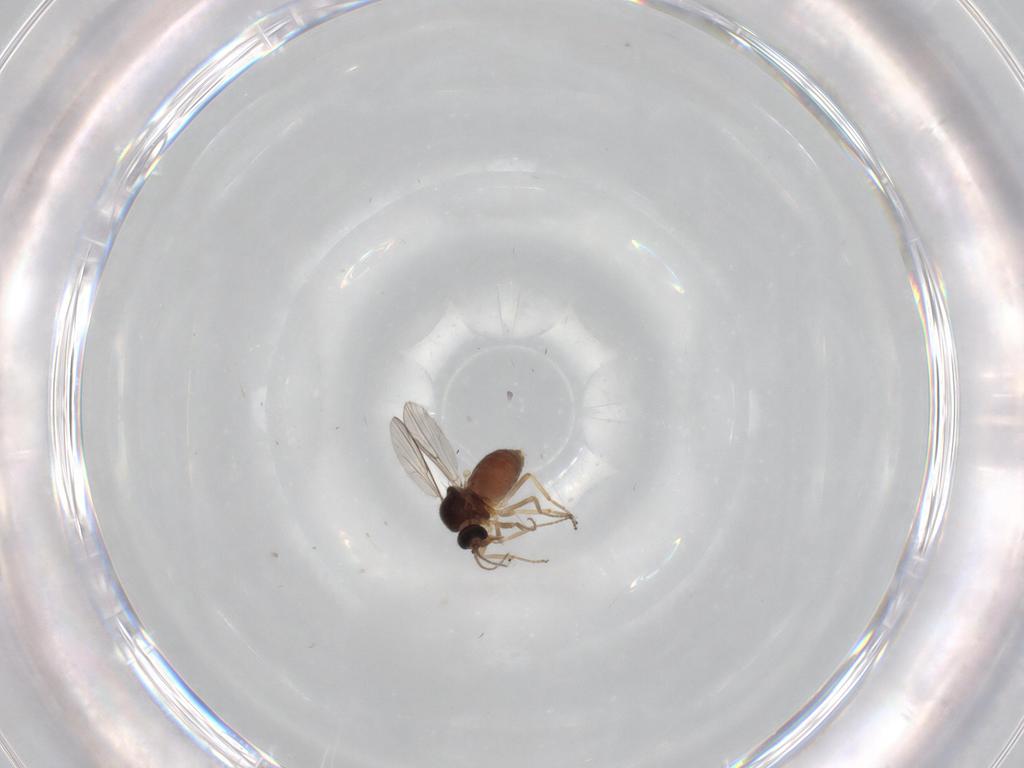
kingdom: Animalia
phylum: Arthropoda
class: Insecta
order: Diptera
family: Ceratopogonidae
